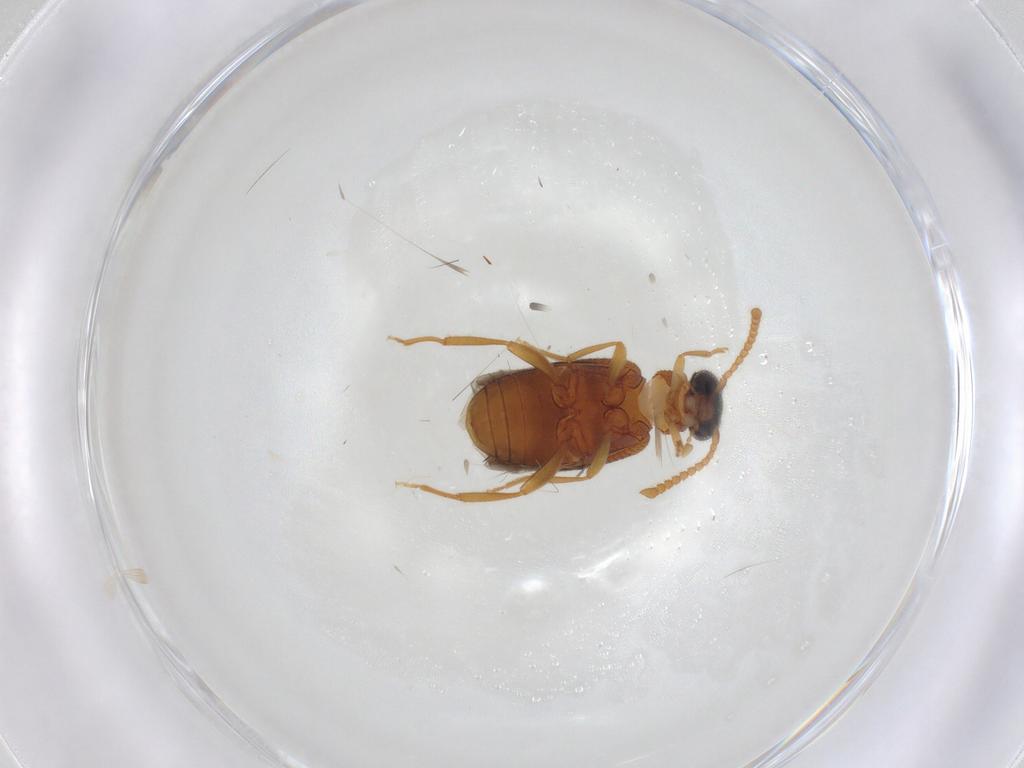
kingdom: Animalia
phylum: Arthropoda
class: Insecta
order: Coleoptera
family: Aderidae
